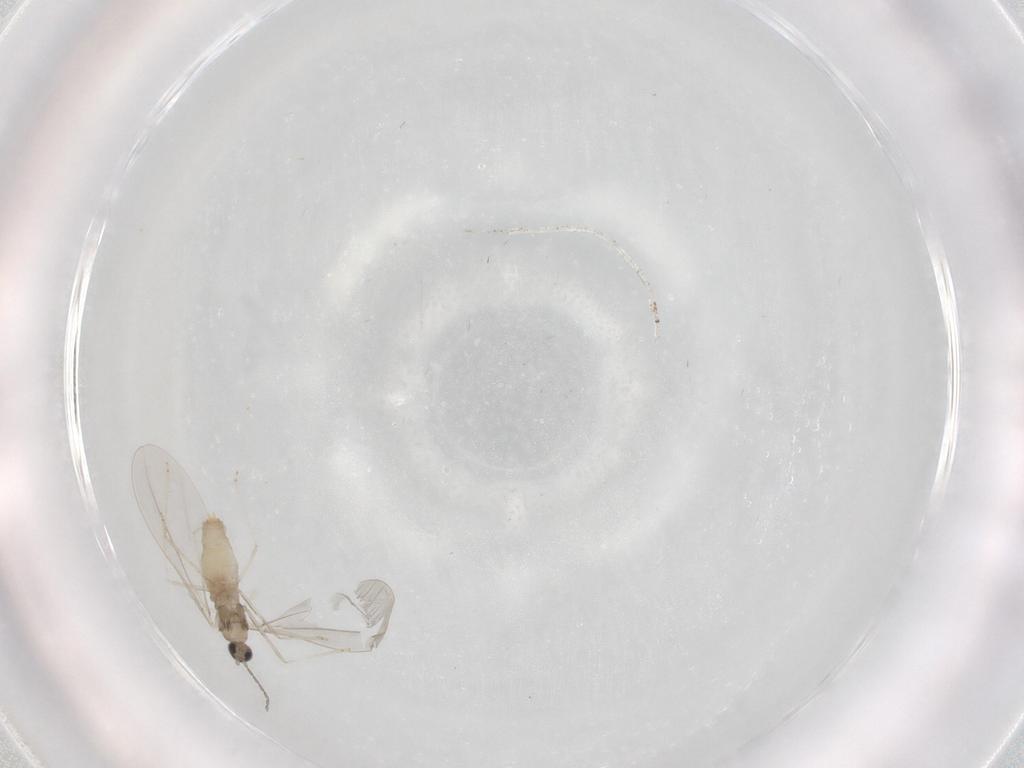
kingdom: Animalia
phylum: Arthropoda
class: Insecta
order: Diptera
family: Cecidomyiidae
